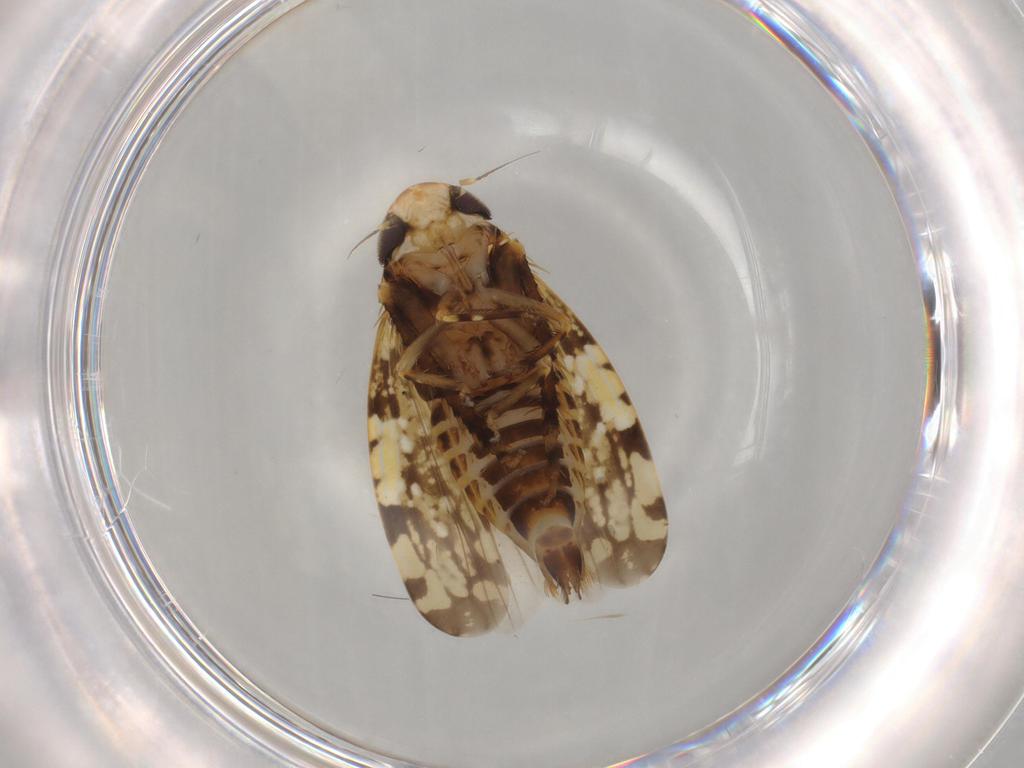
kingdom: Animalia
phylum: Arthropoda
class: Insecta
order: Hemiptera
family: Cicadellidae
